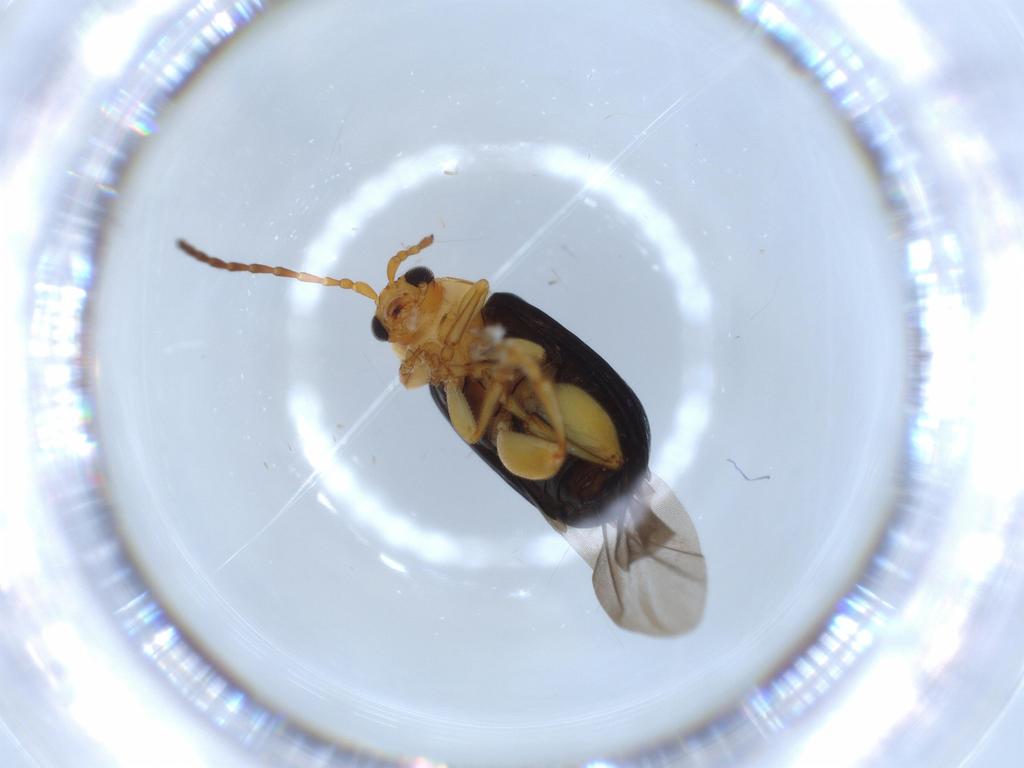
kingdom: Animalia
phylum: Arthropoda
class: Insecta
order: Coleoptera
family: Chrysomelidae
